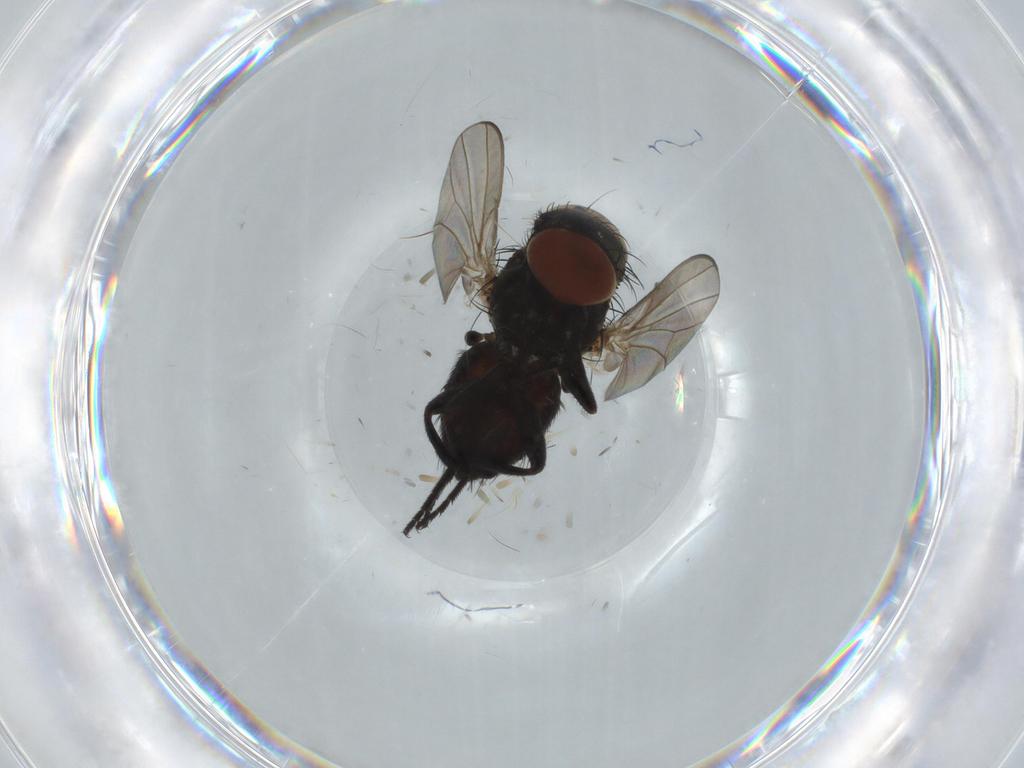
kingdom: Animalia
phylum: Arthropoda
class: Insecta
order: Diptera
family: Milichiidae
